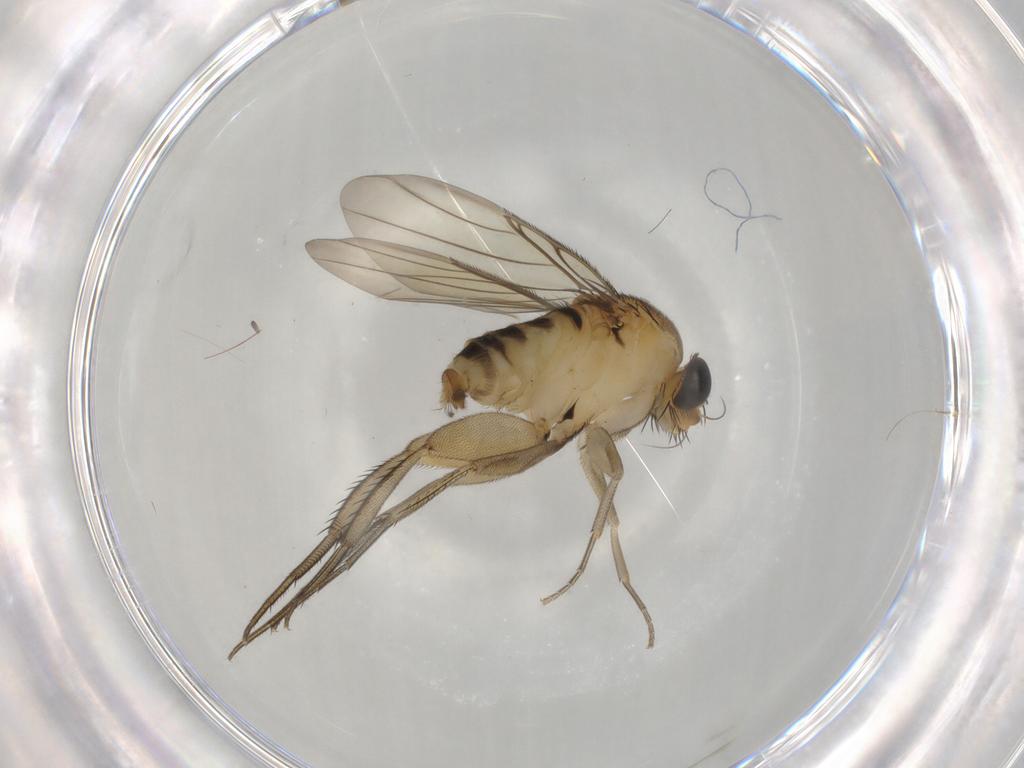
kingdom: Animalia
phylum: Arthropoda
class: Insecta
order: Diptera
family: Phoridae
